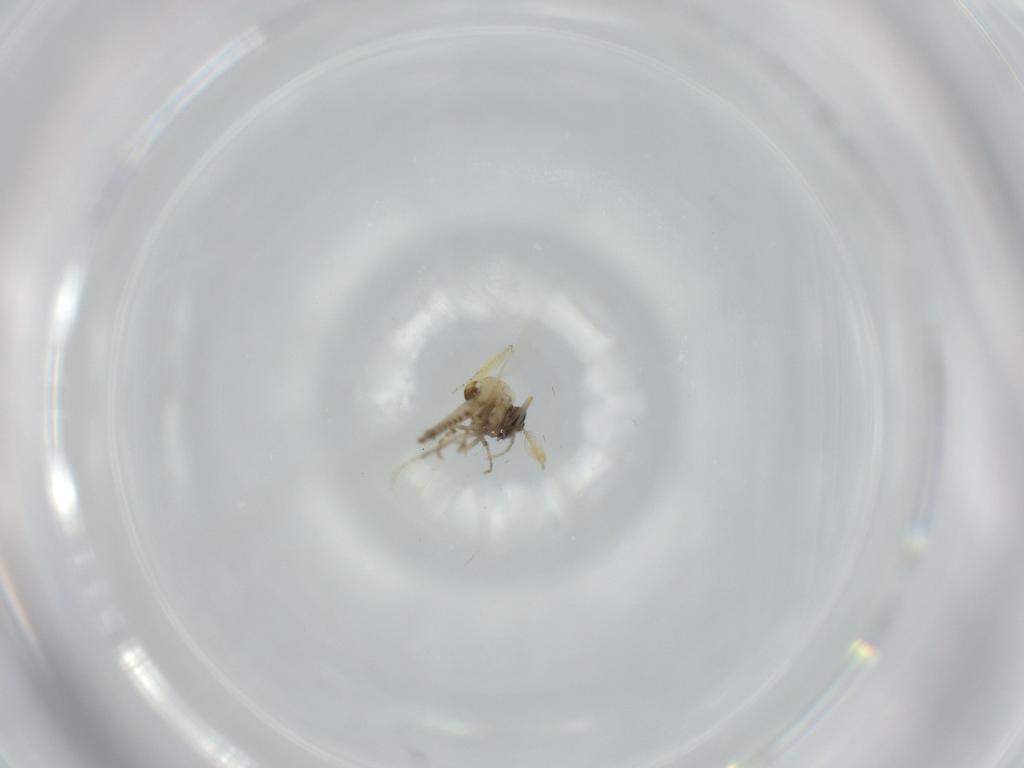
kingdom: Animalia
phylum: Arthropoda
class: Insecta
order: Diptera
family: Ceratopogonidae
